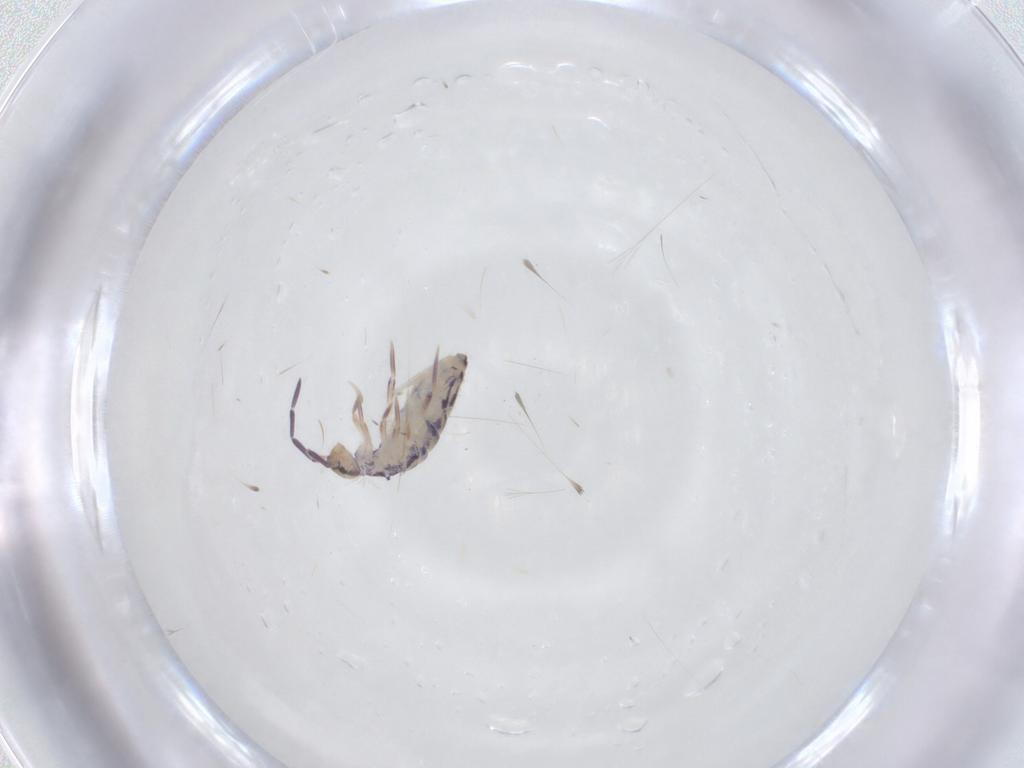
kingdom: Animalia
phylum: Arthropoda
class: Collembola
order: Entomobryomorpha
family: Entomobryidae
